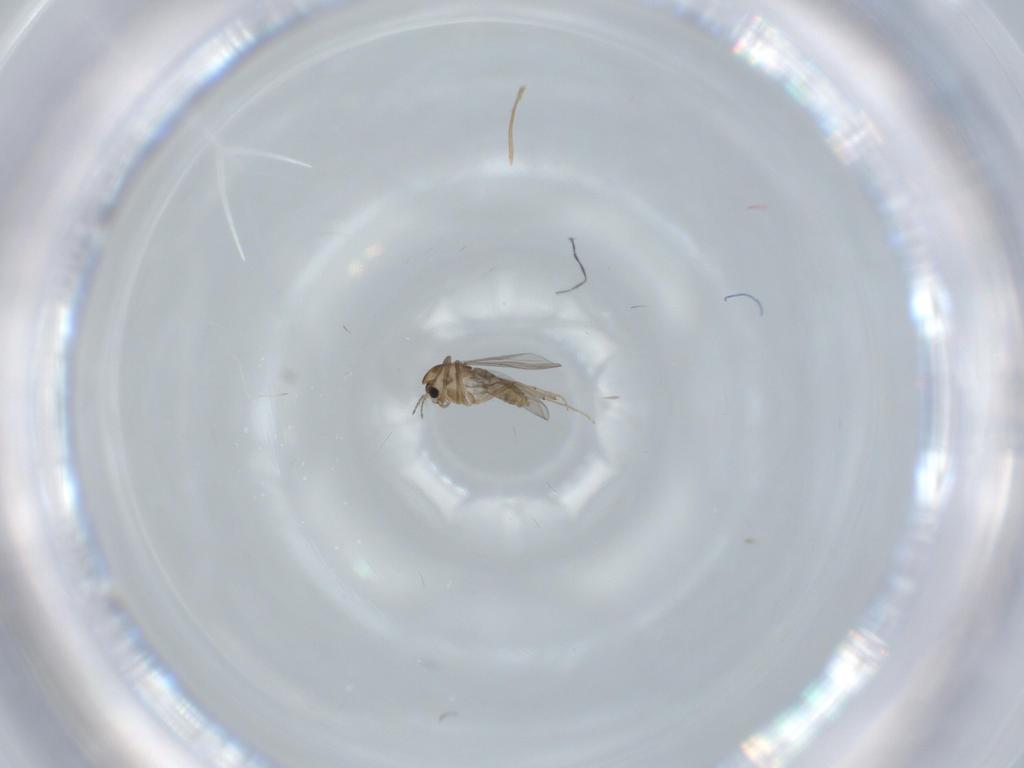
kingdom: Animalia
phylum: Arthropoda
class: Insecta
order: Diptera
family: Chironomidae
